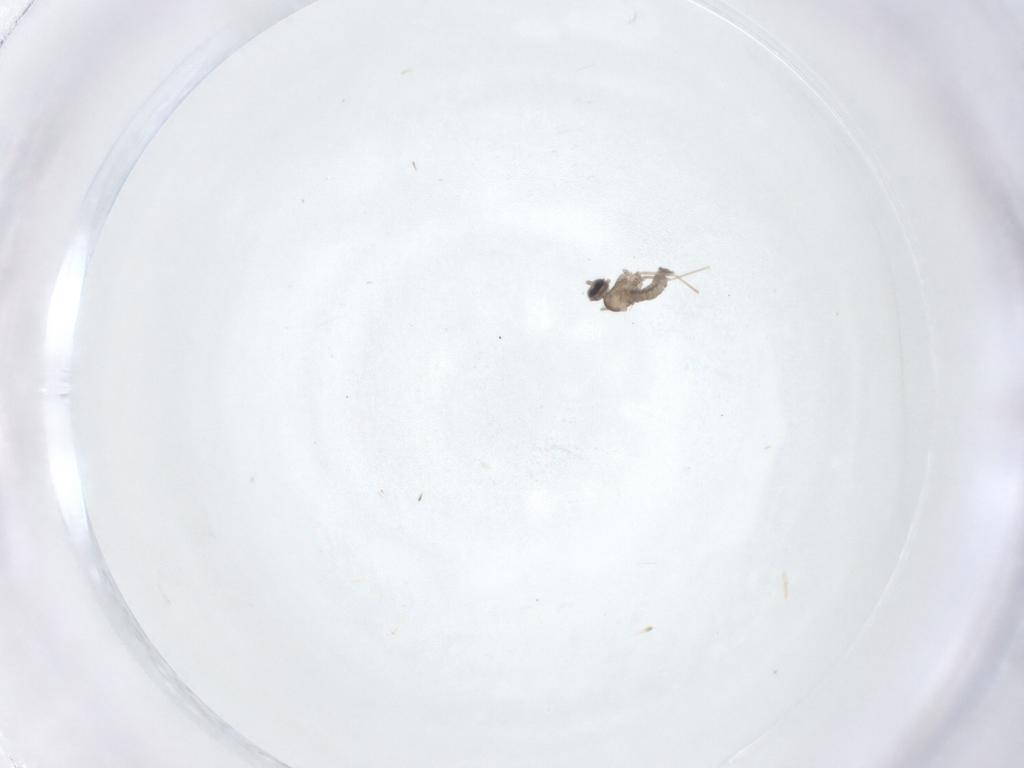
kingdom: Animalia
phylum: Arthropoda
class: Insecta
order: Diptera
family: Cecidomyiidae
